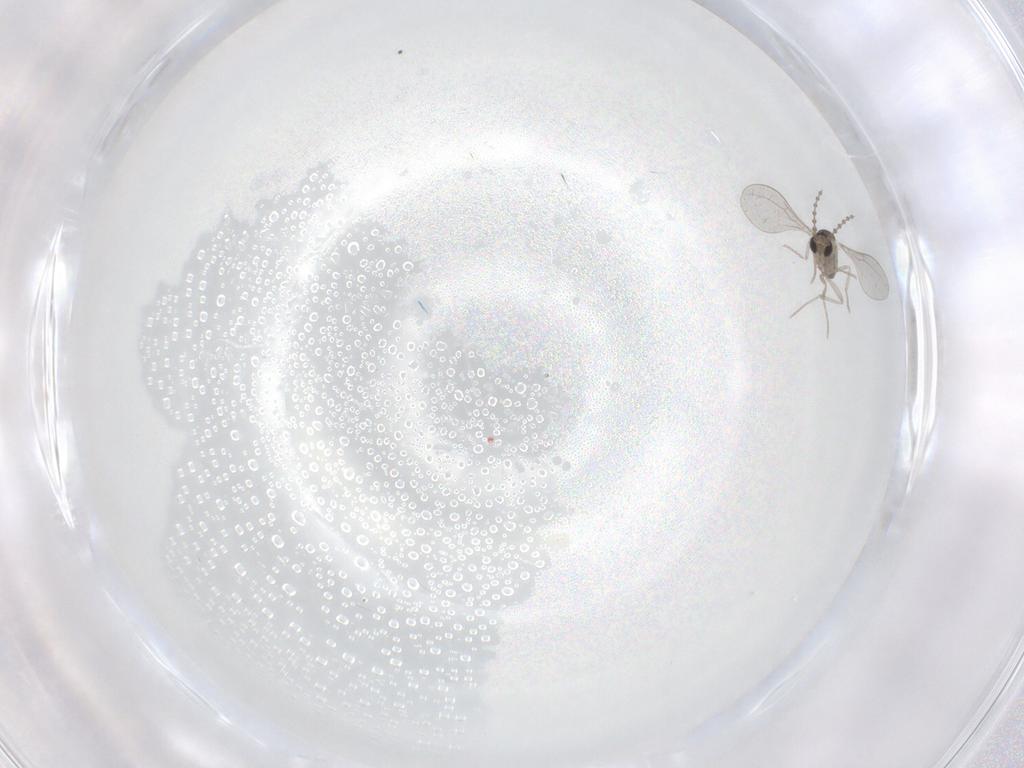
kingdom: Animalia
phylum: Arthropoda
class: Insecta
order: Diptera
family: Cecidomyiidae
